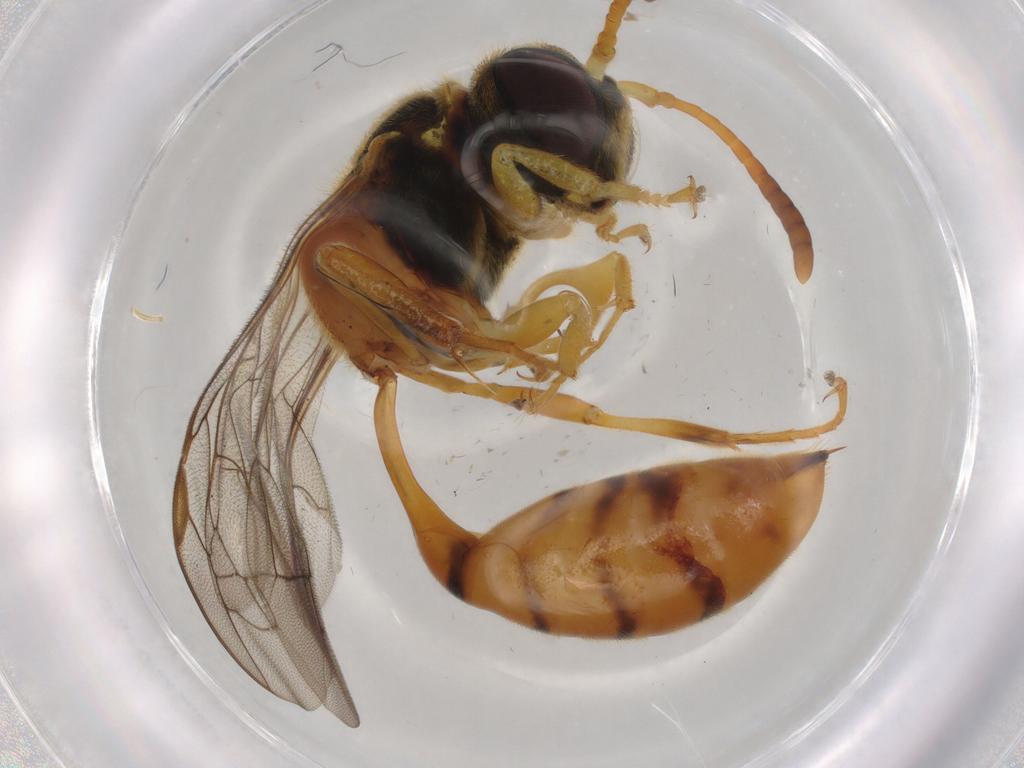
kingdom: Animalia
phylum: Arthropoda
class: Insecta
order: Hymenoptera
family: Psenidae
